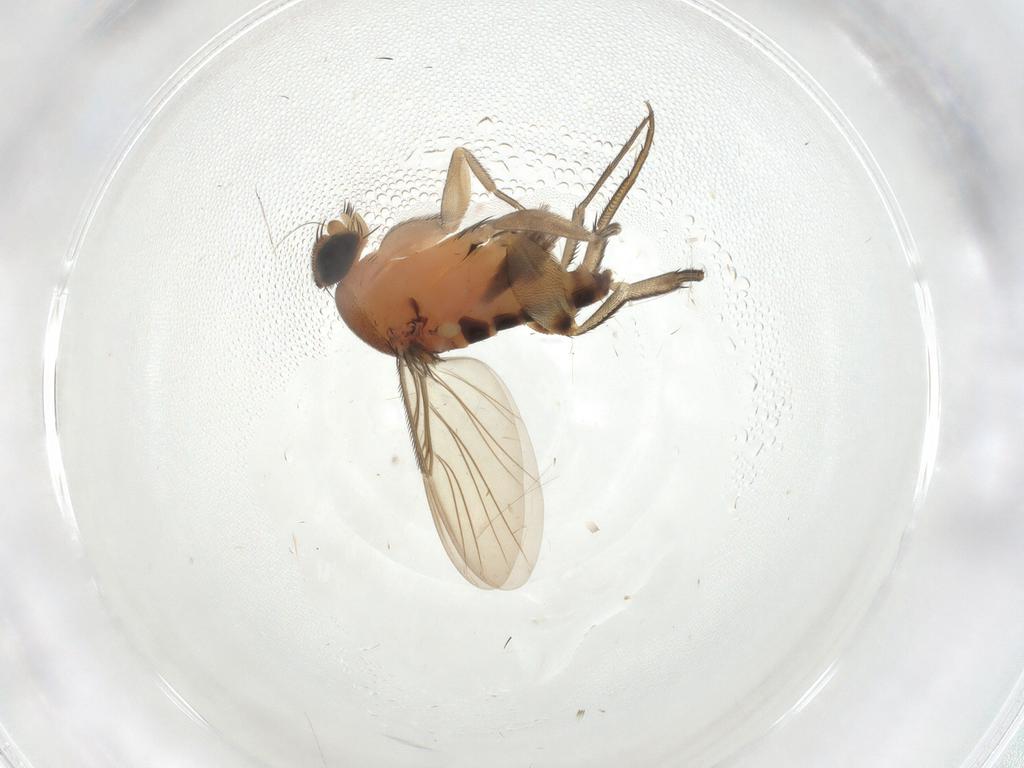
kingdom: Animalia
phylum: Arthropoda
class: Insecta
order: Diptera
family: Phoridae
